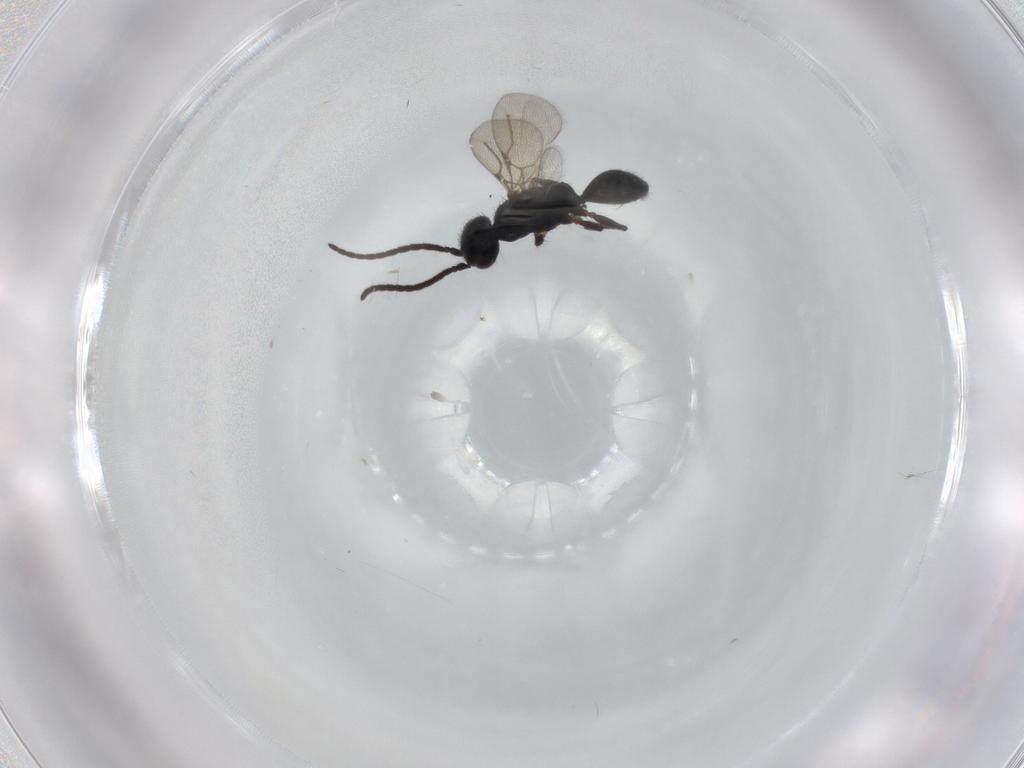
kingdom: Animalia
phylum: Arthropoda
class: Insecta
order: Hymenoptera
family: Bethylidae
